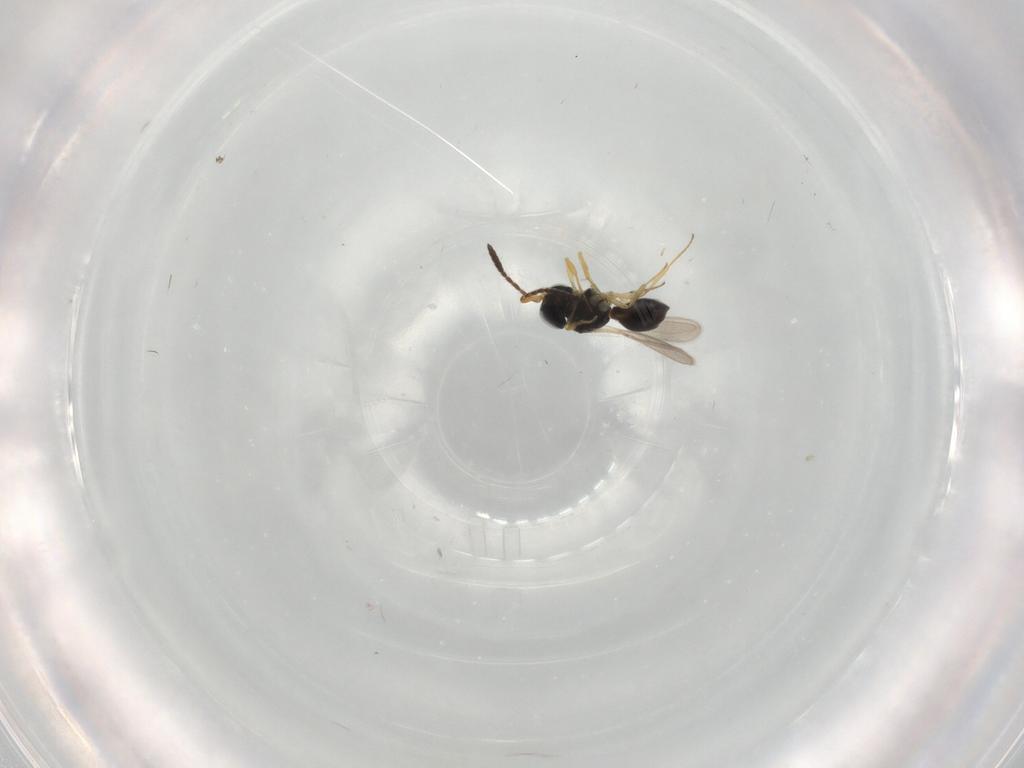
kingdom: Animalia
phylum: Arthropoda
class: Insecta
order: Hymenoptera
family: Scelionidae
